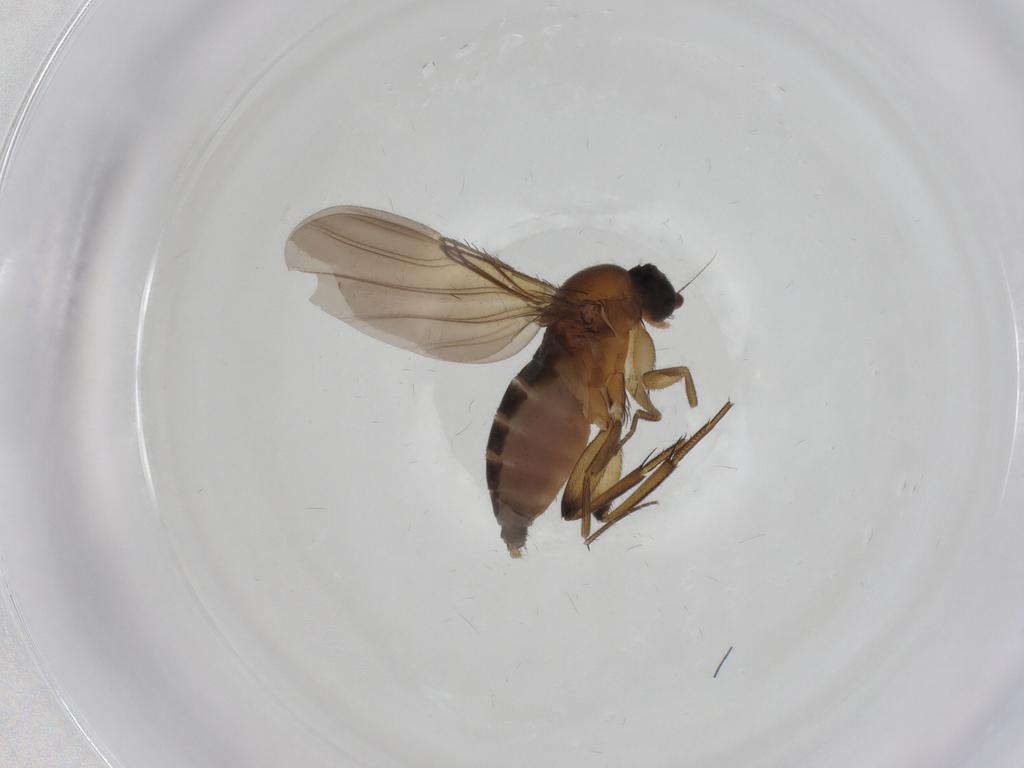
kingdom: Animalia
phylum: Arthropoda
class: Insecta
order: Diptera
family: Phoridae
